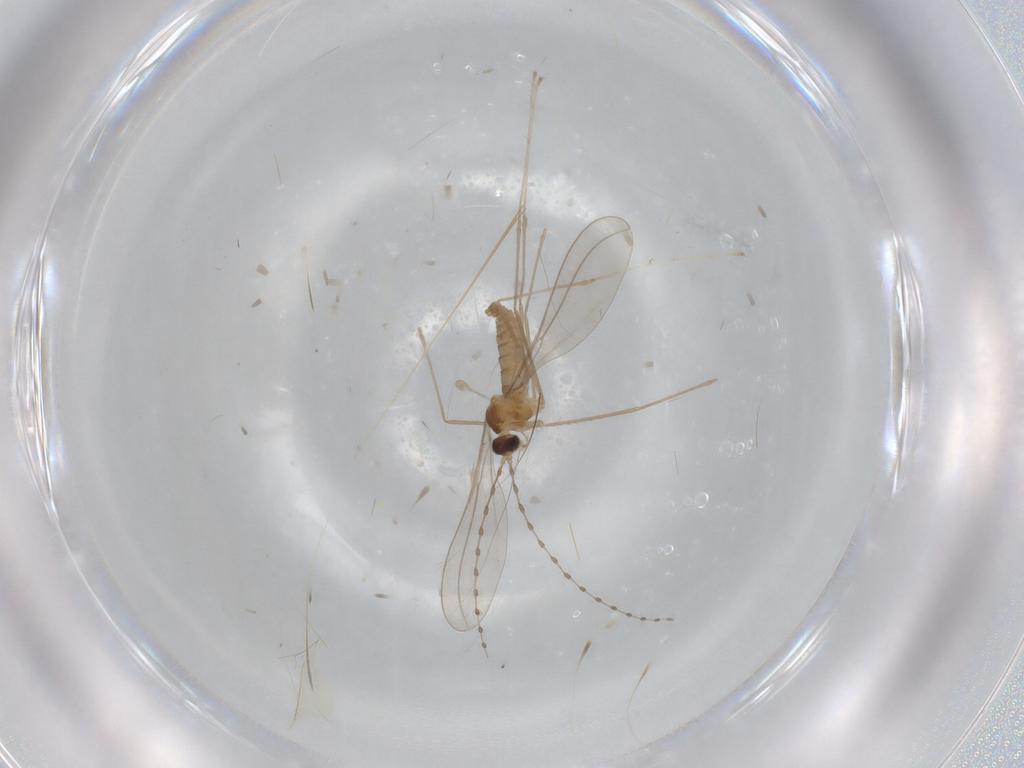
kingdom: Animalia
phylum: Arthropoda
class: Insecta
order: Diptera
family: Cecidomyiidae
